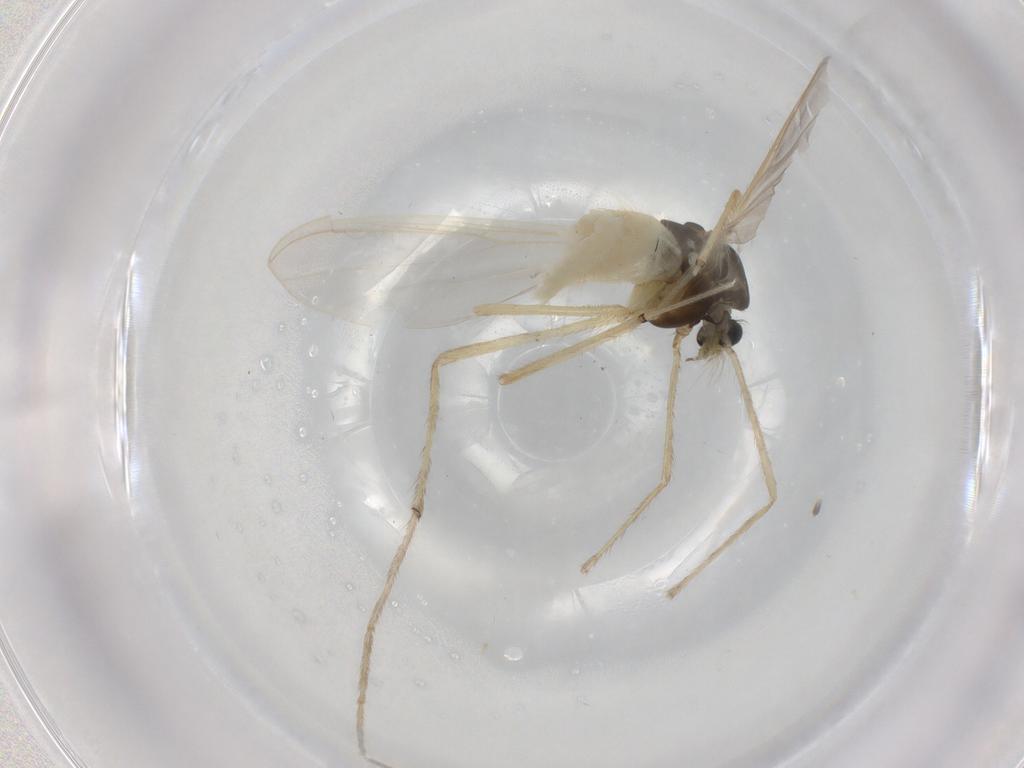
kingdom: Animalia
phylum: Arthropoda
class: Insecta
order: Diptera
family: Chironomidae
